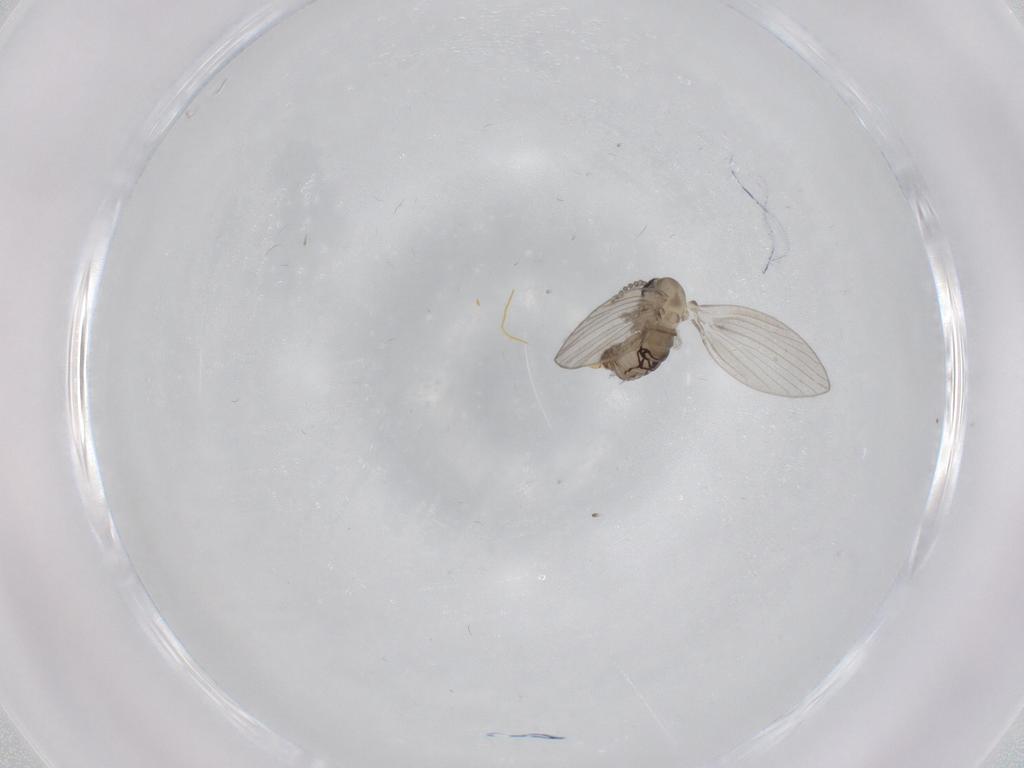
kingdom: Animalia
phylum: Arthropoda
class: Insecta
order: Diptera
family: Psychodidae
